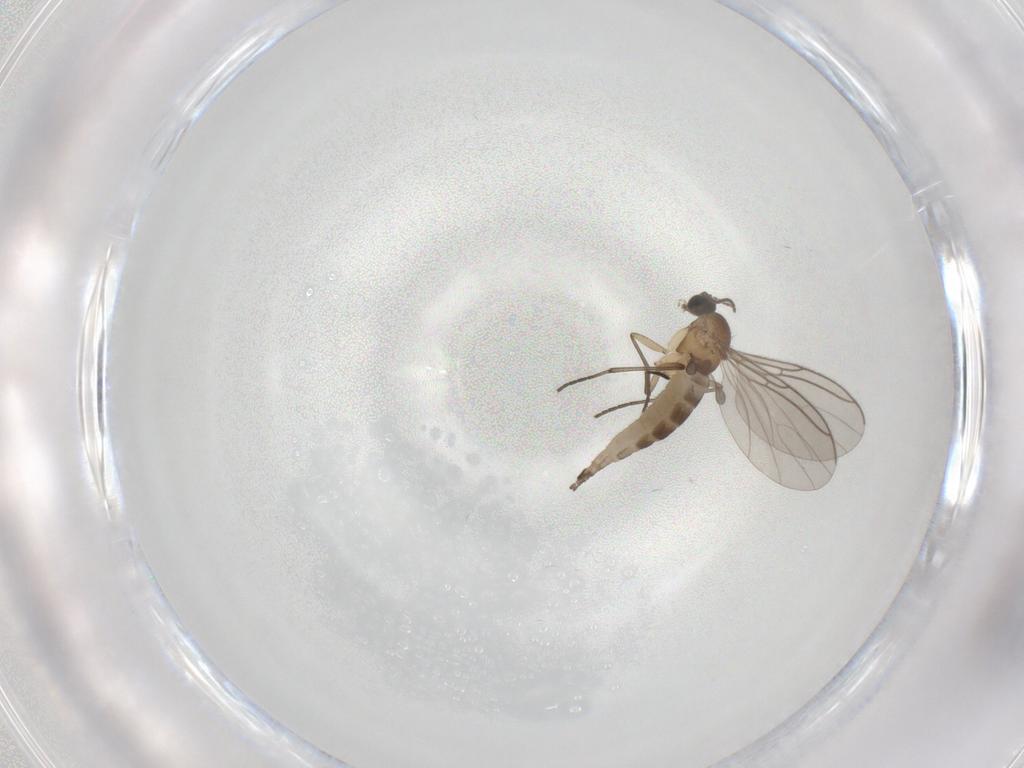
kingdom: Animalia
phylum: Arthropoda
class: Insecta
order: Diptera
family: Sciaridae
